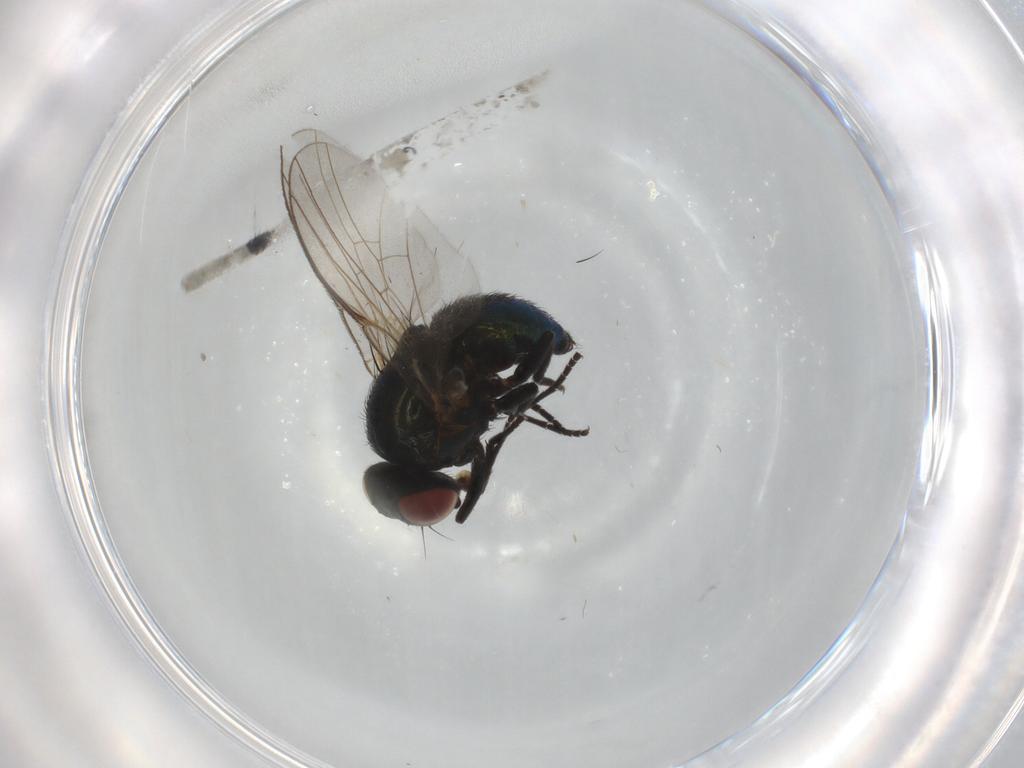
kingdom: Animalia
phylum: Arthropoda
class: Insecta
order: Diptera
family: Agromyzidae
